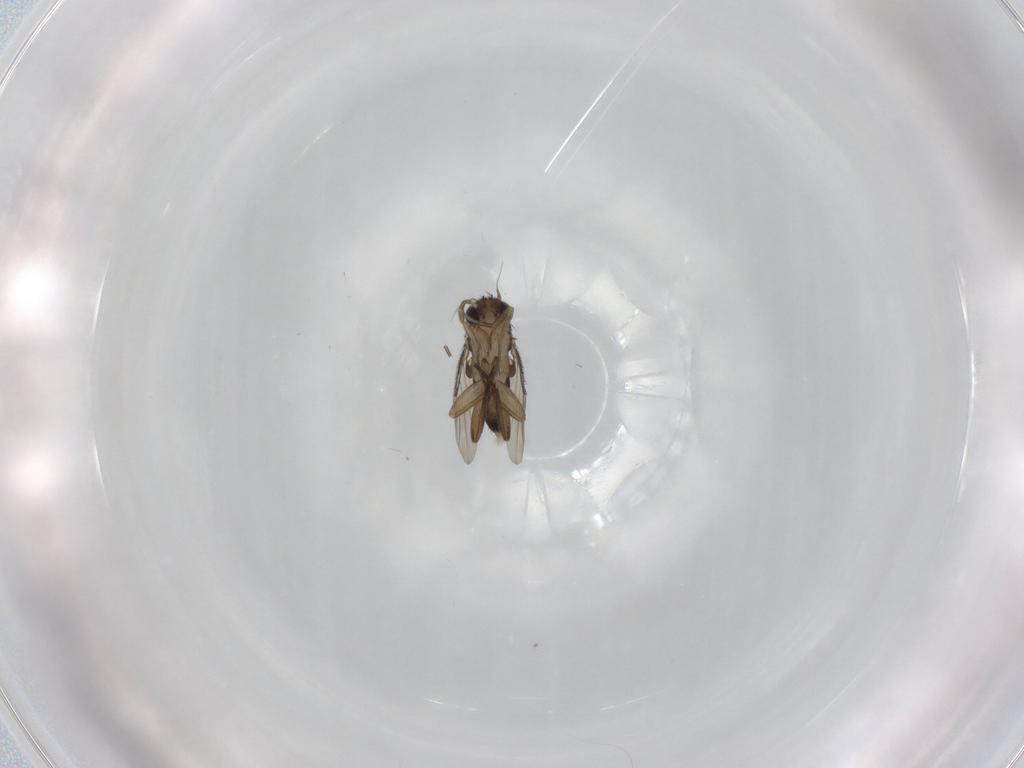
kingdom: Animalia
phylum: Arthropoda
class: Insecta
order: Diptera
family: Phoridae
